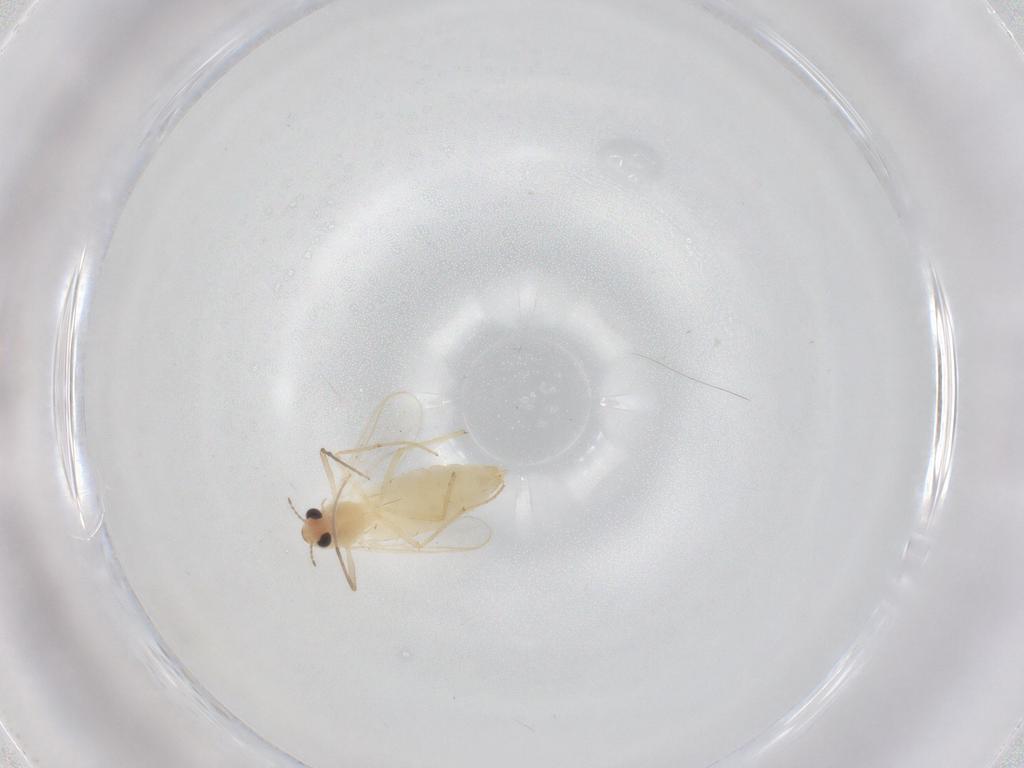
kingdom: Animalia
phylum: Arthropoda
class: Insecta
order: Diptera
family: Chironomidae
